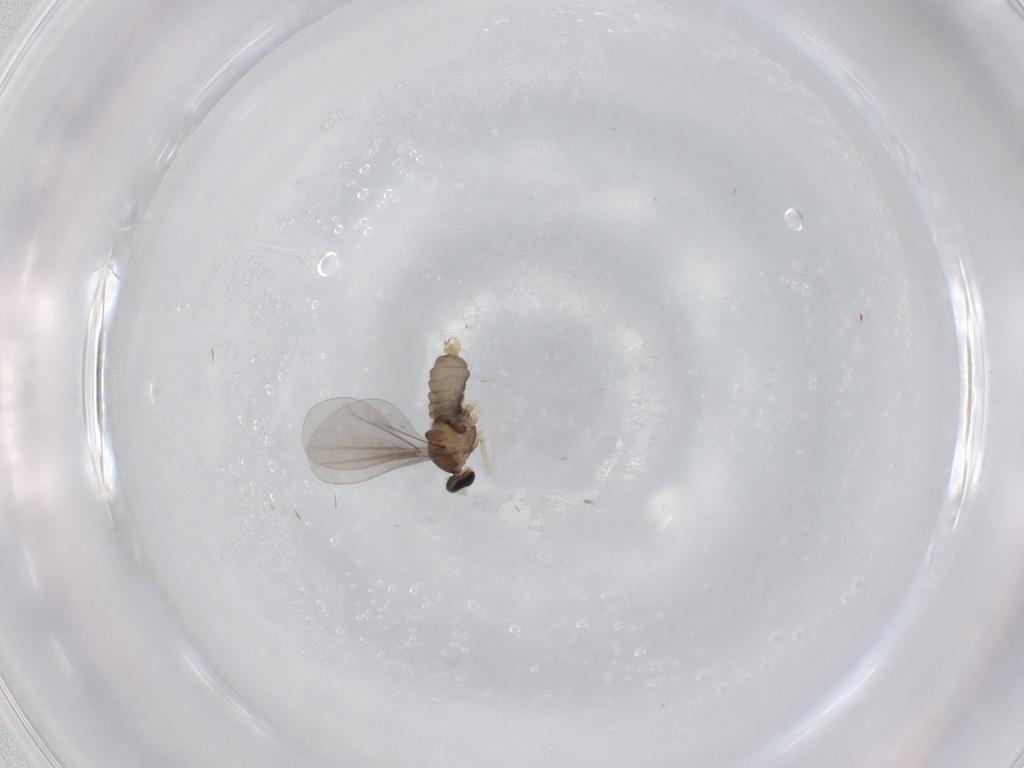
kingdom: Animalia
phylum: Arthropoda
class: Insecta
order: Diptera
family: Cecidomyiidae
